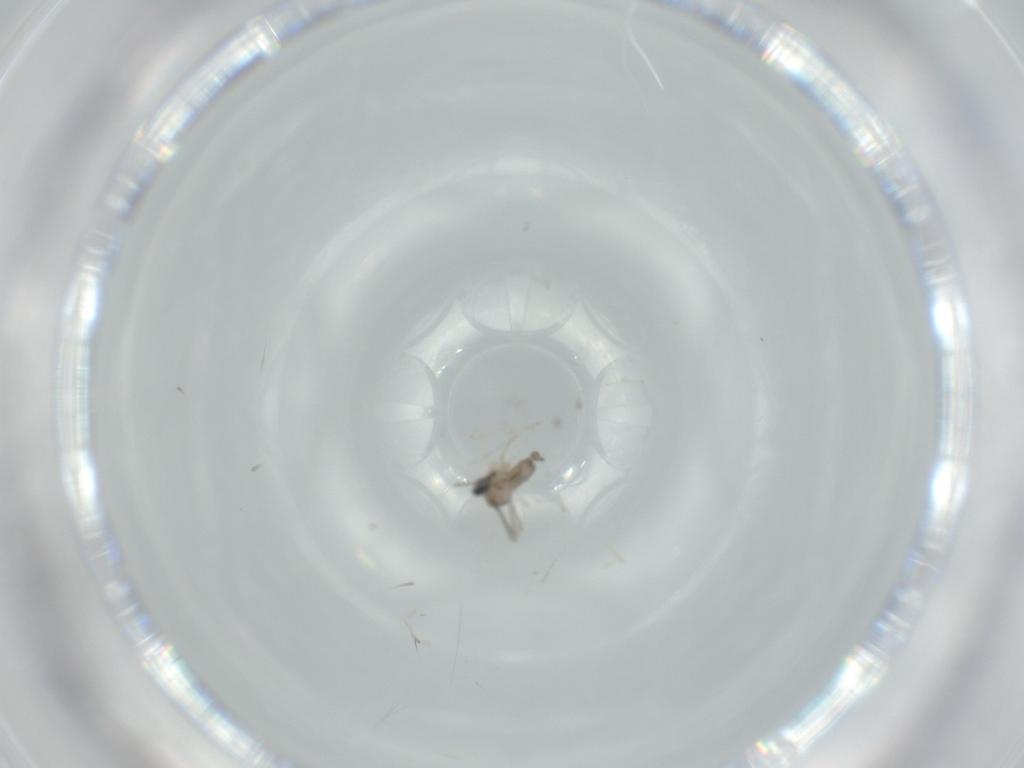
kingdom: Animalia
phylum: Arthropoda
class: Insecta
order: Diptera
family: Cecidomyiidae
